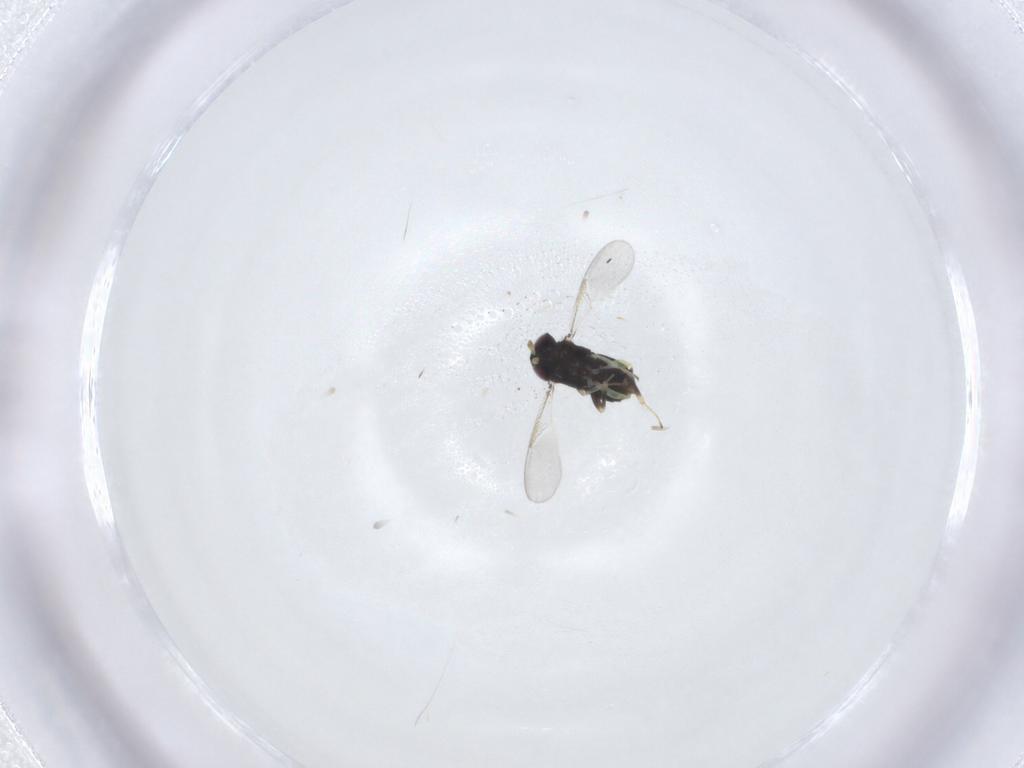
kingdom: Animalia
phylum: Arthropoda
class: Insecta
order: Hymenoptera
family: Aphelinidae
